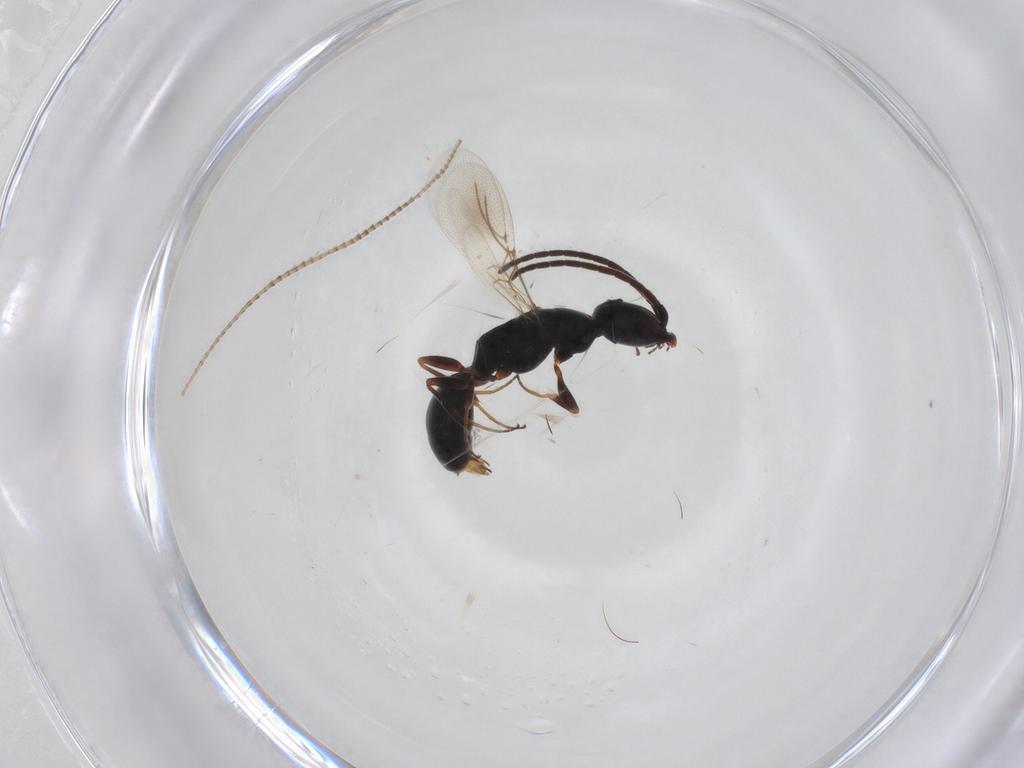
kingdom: Animalia
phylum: Arthropoda
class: Insecta
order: Hymenoptera
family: Bethylidae
